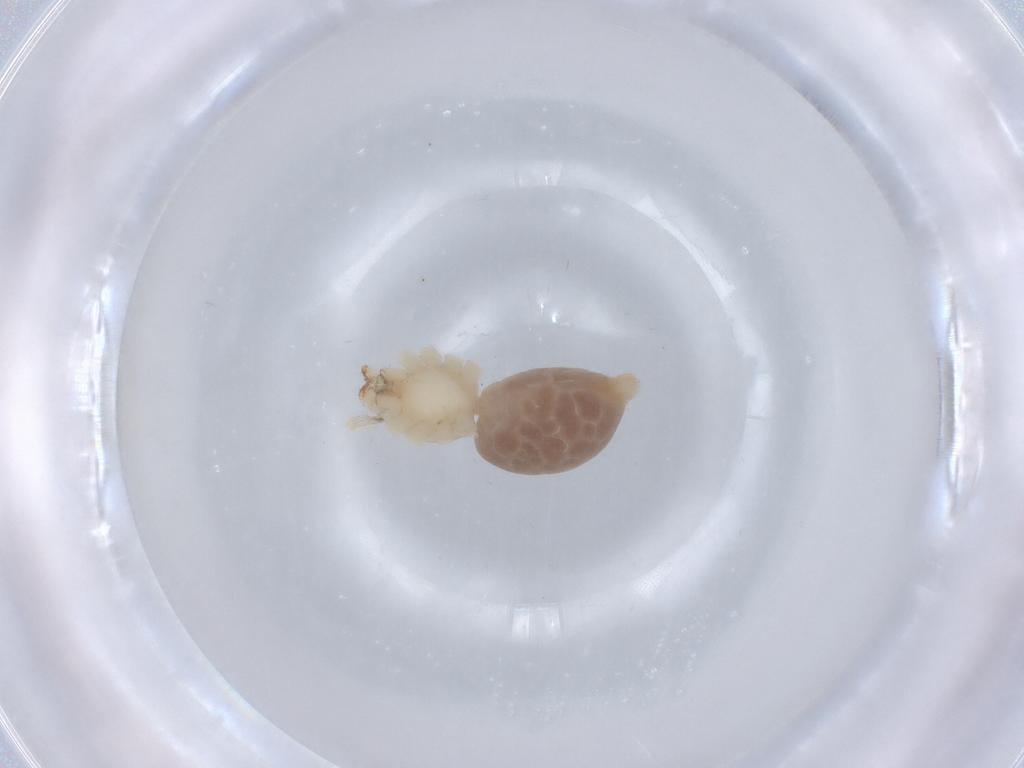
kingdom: Animalia
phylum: Arthropoda
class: Arachnida
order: Araneae
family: Anyphaenidae
